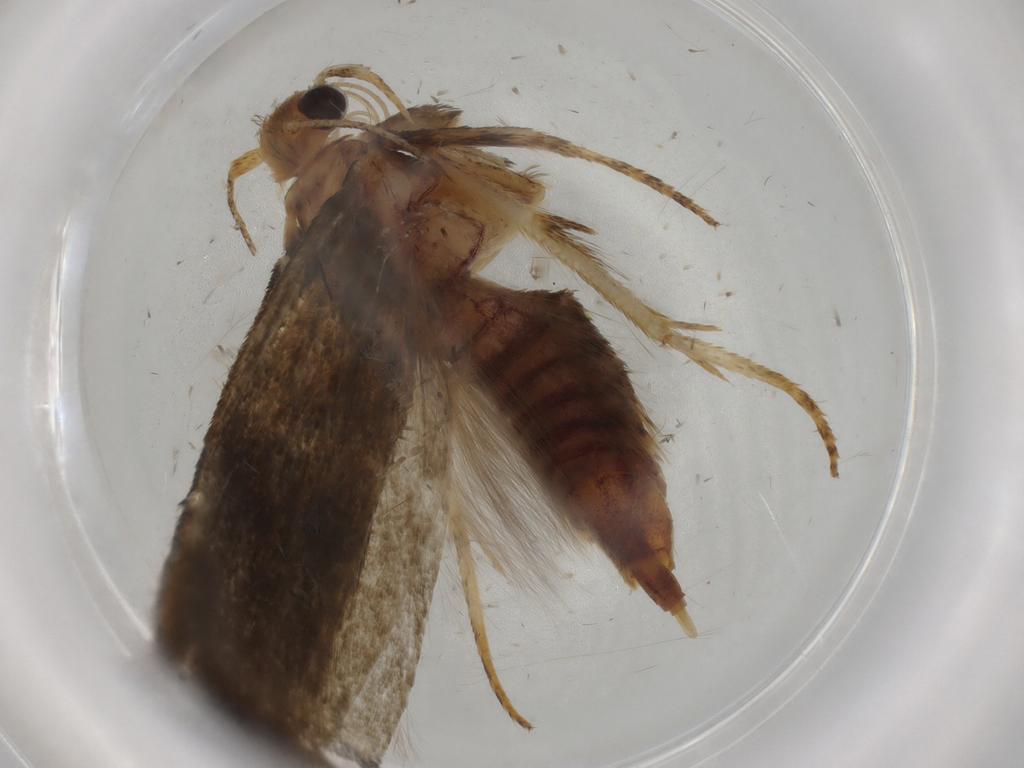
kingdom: Animalia
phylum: Arthropoda
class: Insecta
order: Lepidoptera
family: Blastobasidae
